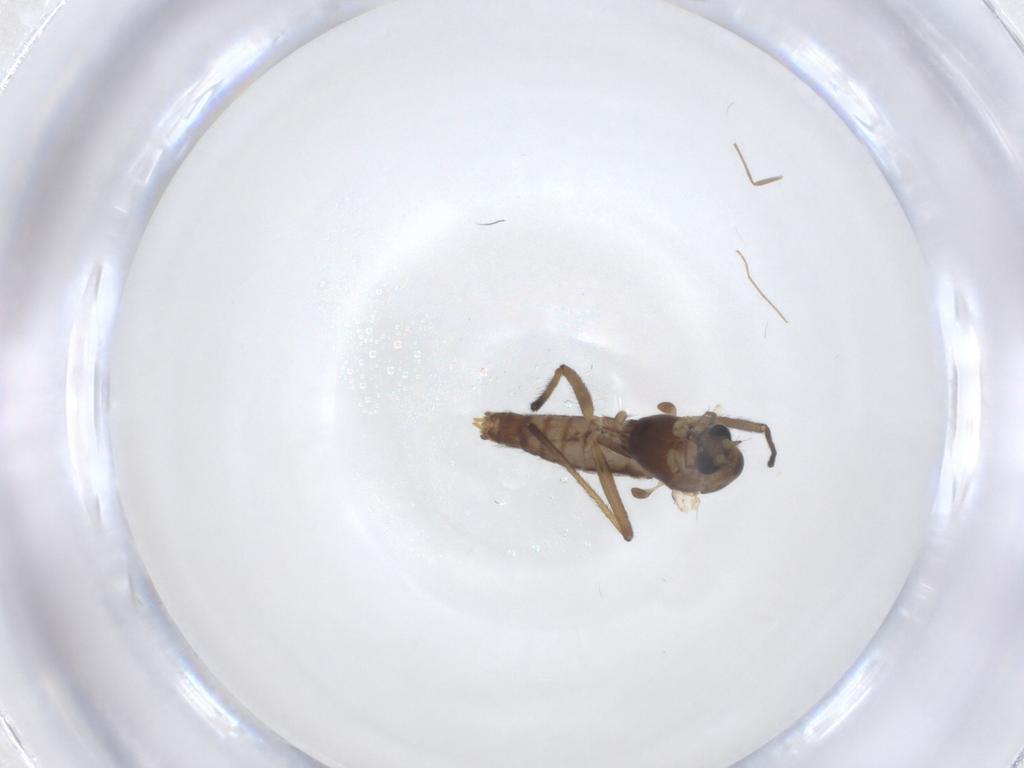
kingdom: Animalia
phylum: Arthropoda
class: Insecta
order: Diptera
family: Chironomidae
